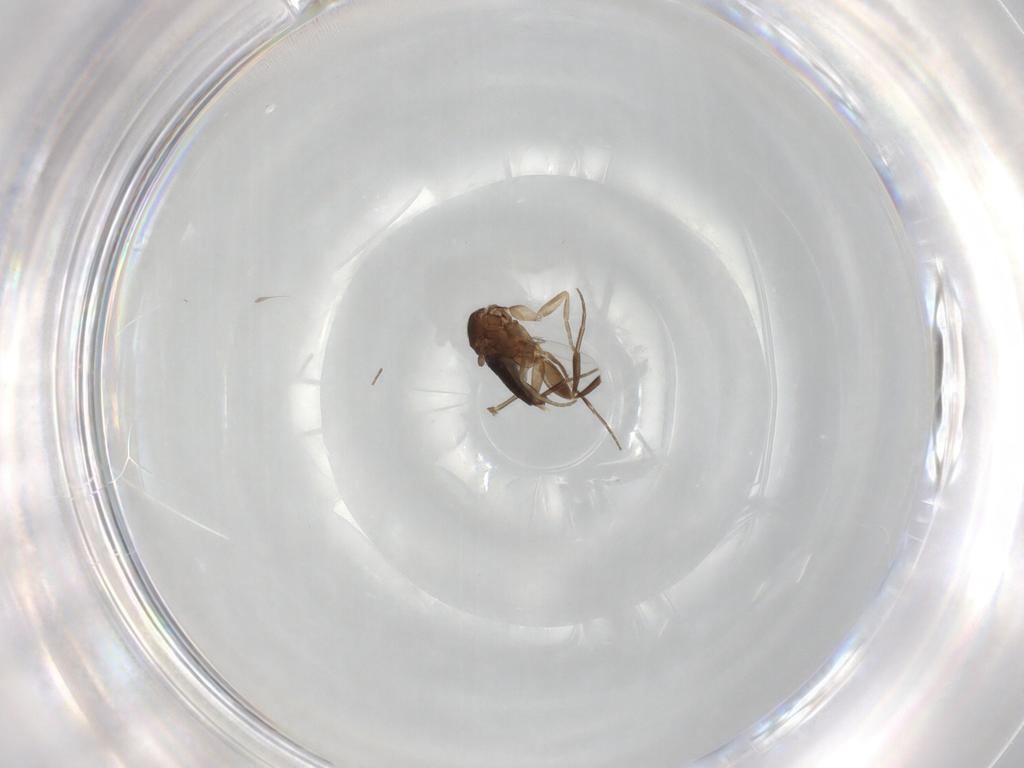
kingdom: Animalia
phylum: Arthropoda
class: Insecta
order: Diptera
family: Phoridae
